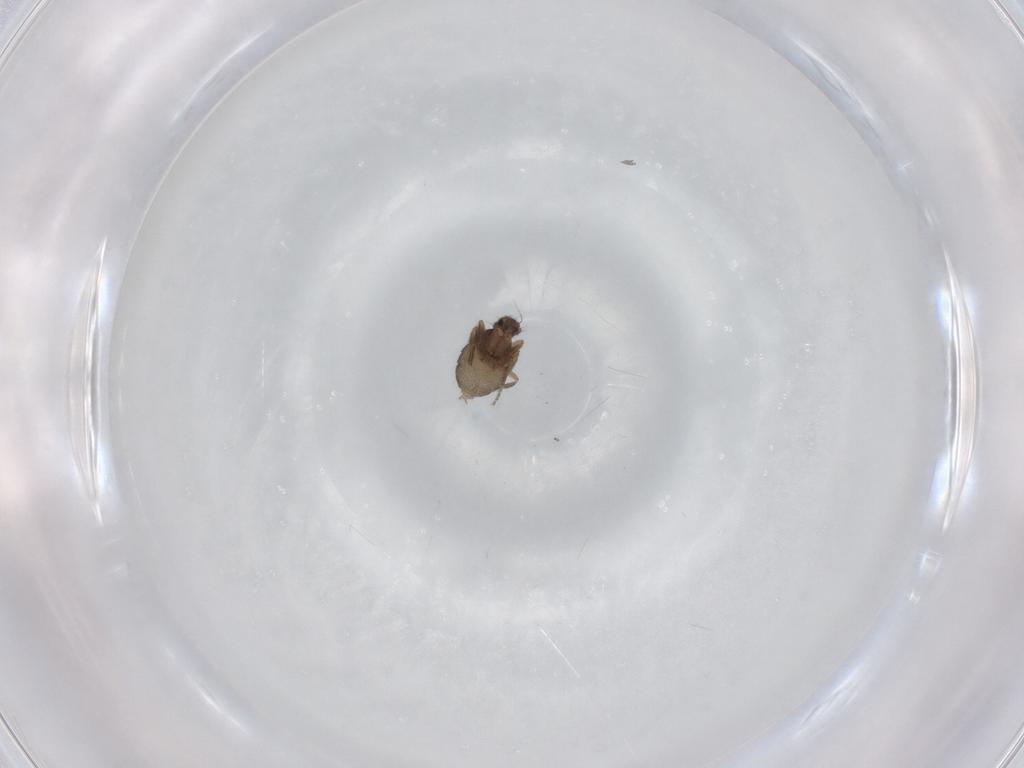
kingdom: Animalia
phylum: Arthropoda
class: Insecta
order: Diptera
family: Phoridae
